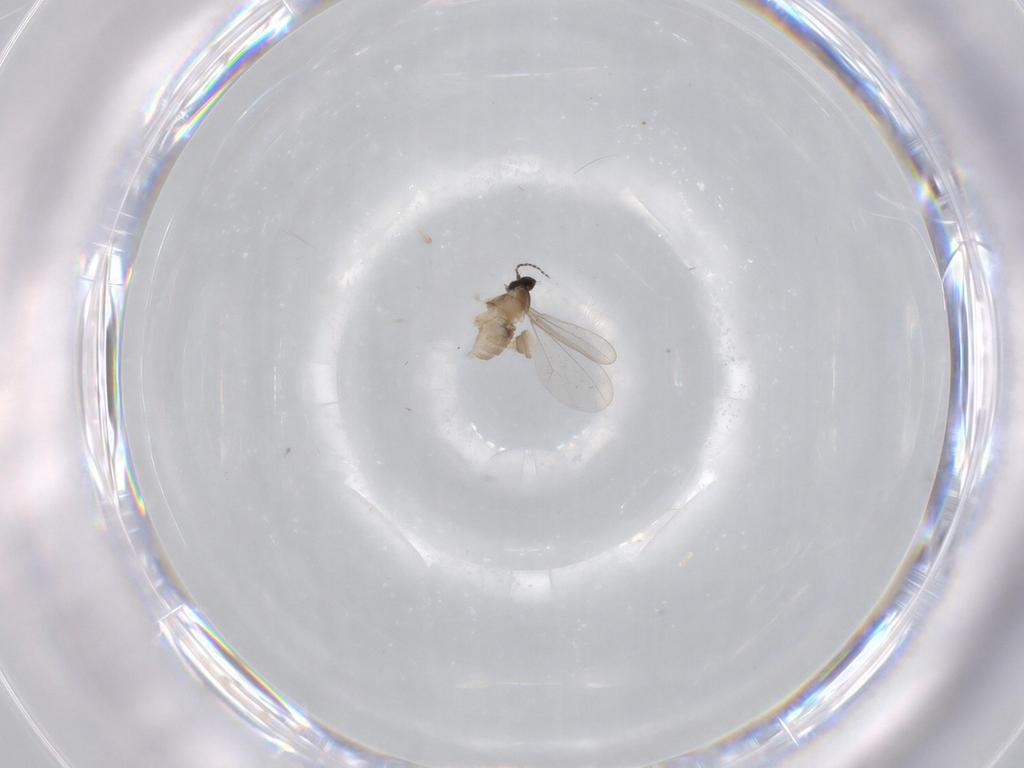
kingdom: Animalia
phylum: Arthropoda
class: Insecta
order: Diptera
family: Cecidomyiidae
